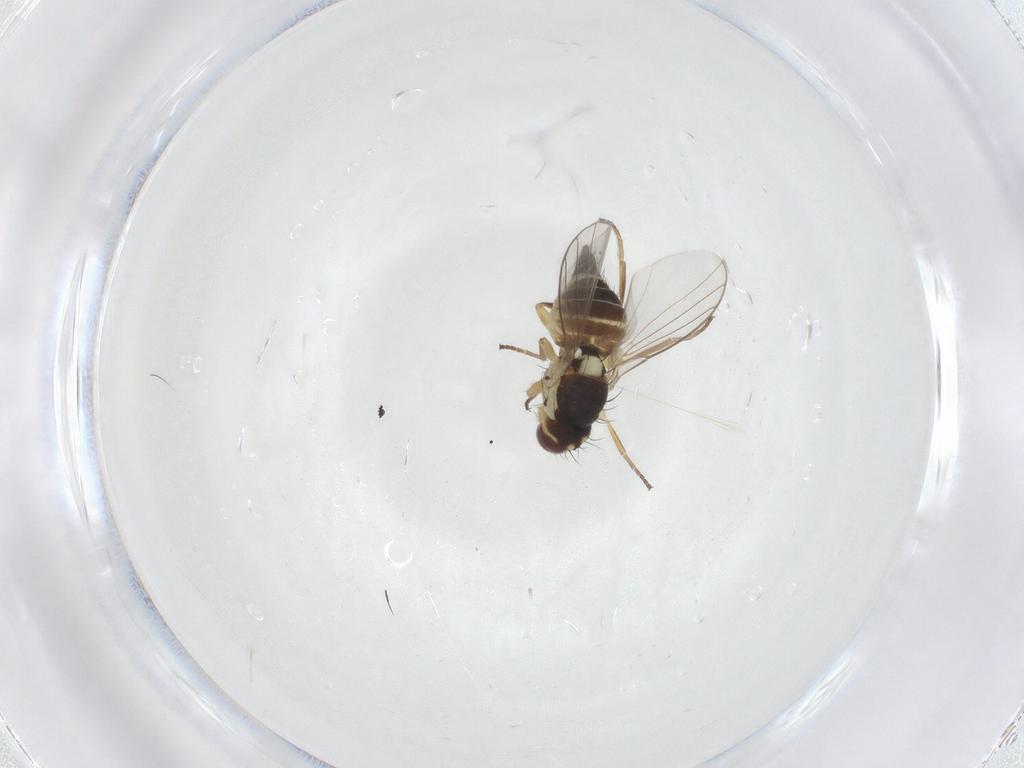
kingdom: Animalia
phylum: Arthropoda
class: Insecta
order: Diptera
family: Agromyzidae
